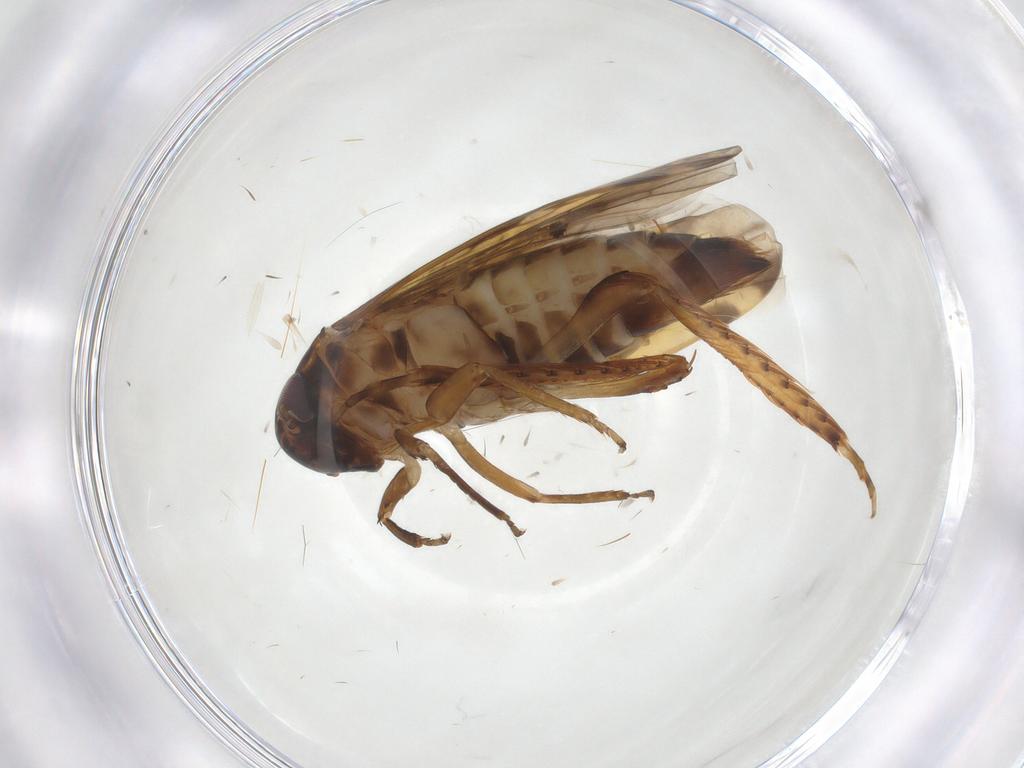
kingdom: Animalia
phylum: Arthropoda
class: Insecta
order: Hemiptera
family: Cicadellidae
